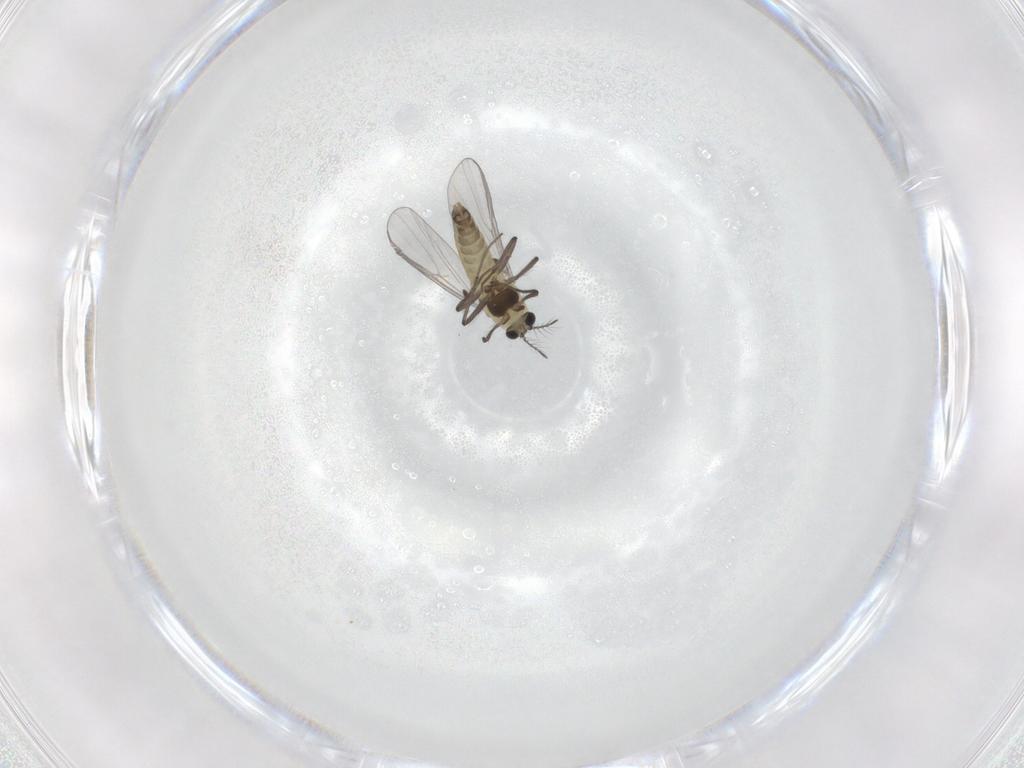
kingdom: Animalia
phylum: Arthropoda
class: Insecta
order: Diptera
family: Chironomidae
